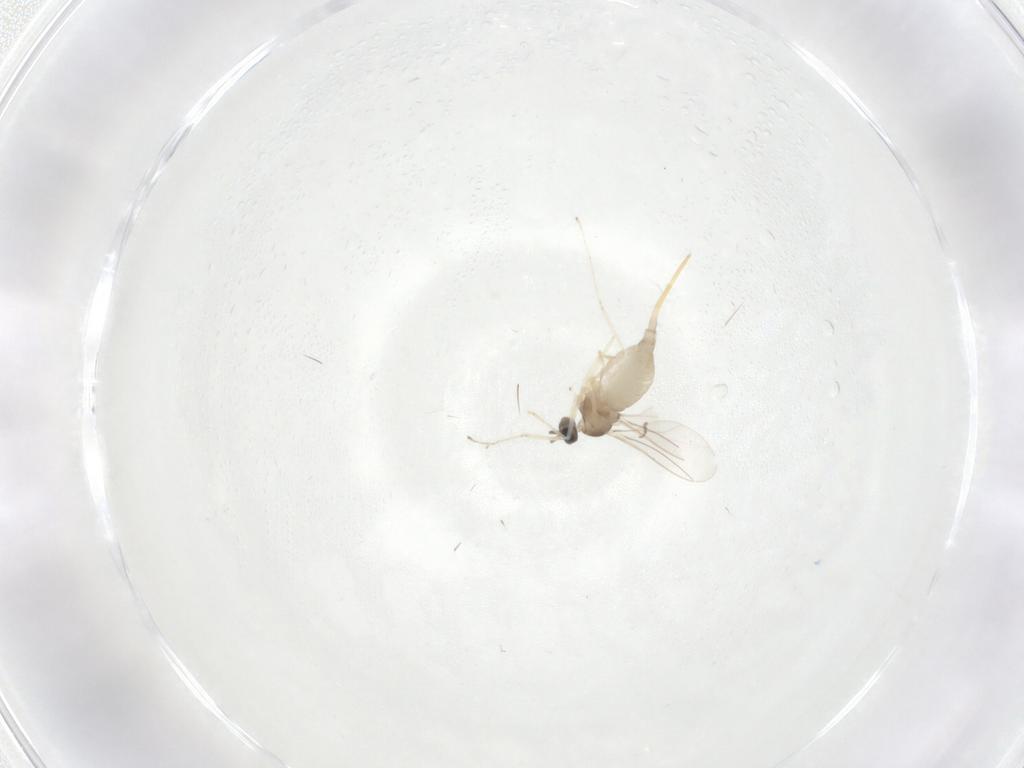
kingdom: Animalia
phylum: Arthropoda
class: Insecta
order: Diptera
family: Cecidomyiidae
